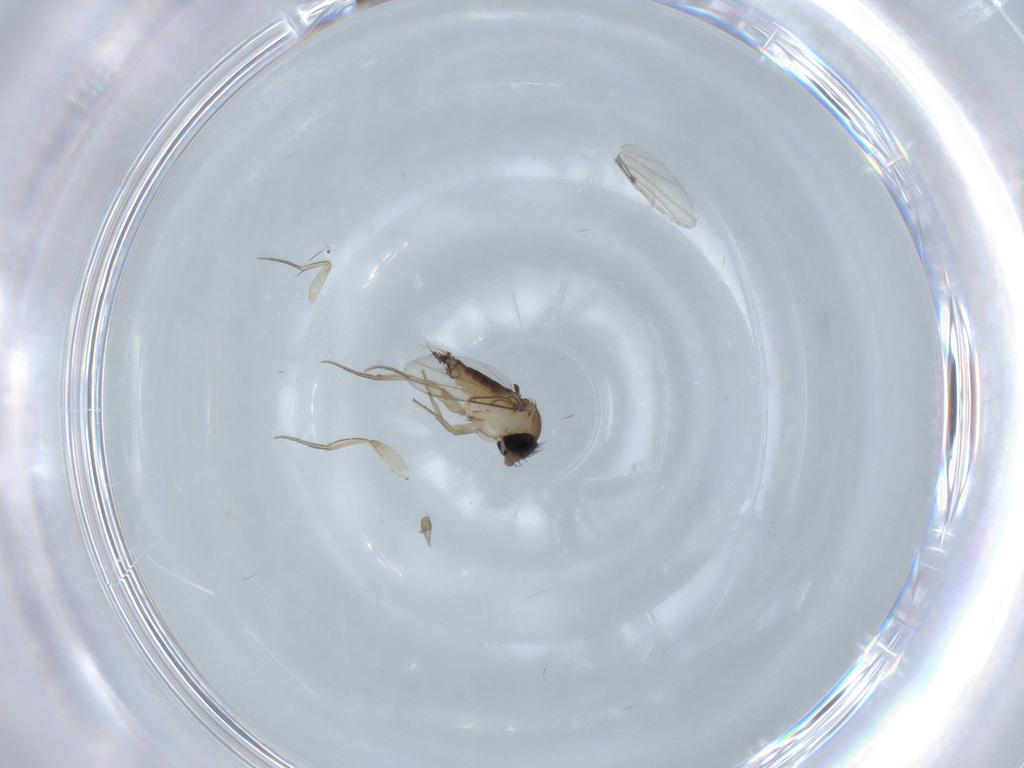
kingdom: Animalia
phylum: Arthropoda
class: Insecta
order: Diptera
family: Phoridae
